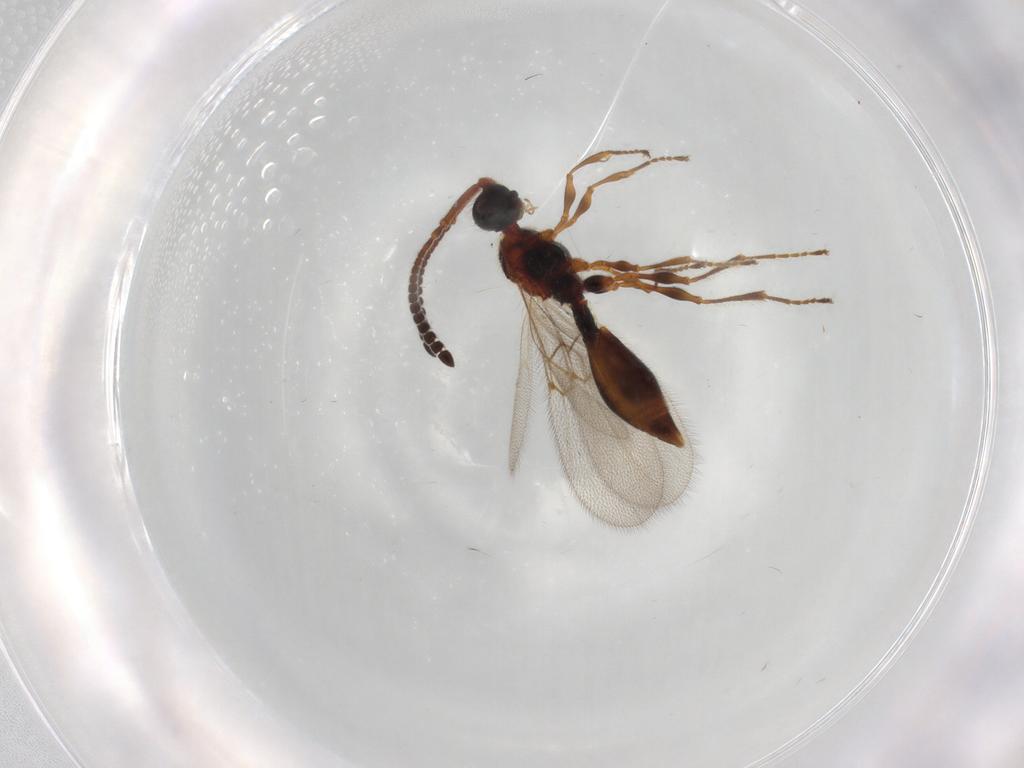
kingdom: Animalia
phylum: Arthropoda
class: Insecta
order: Hymenoptera
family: Diapriidae
